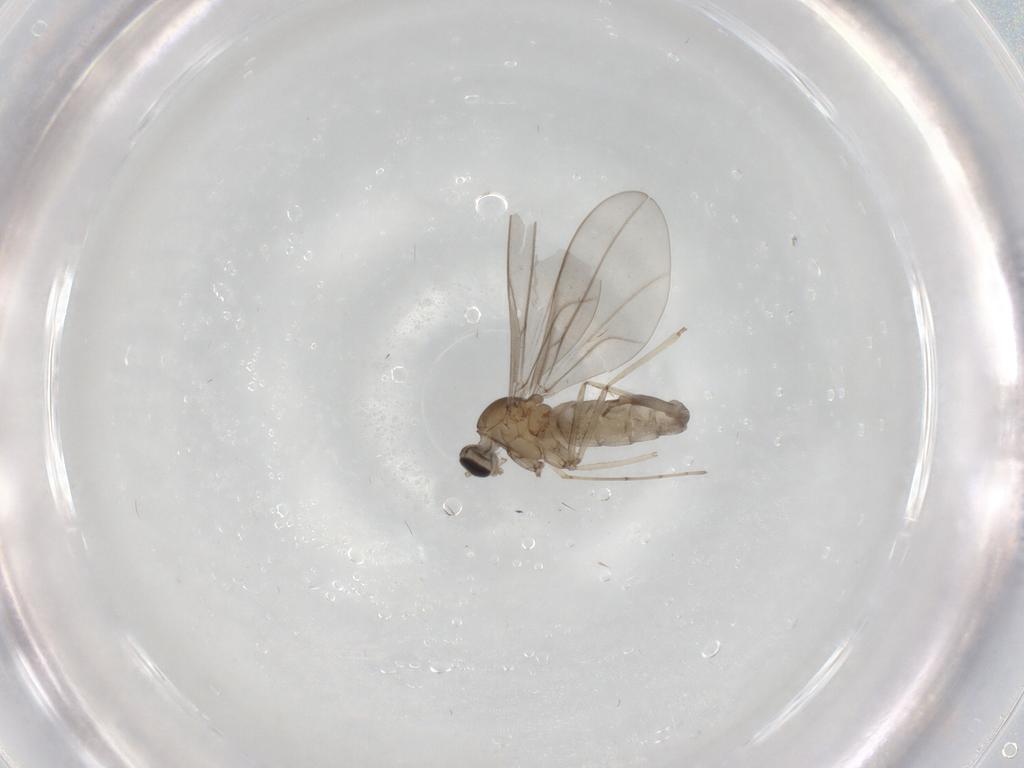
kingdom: Animalia
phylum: Arthropoda
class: Insecta
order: Diptera
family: Cecidomyiidae
